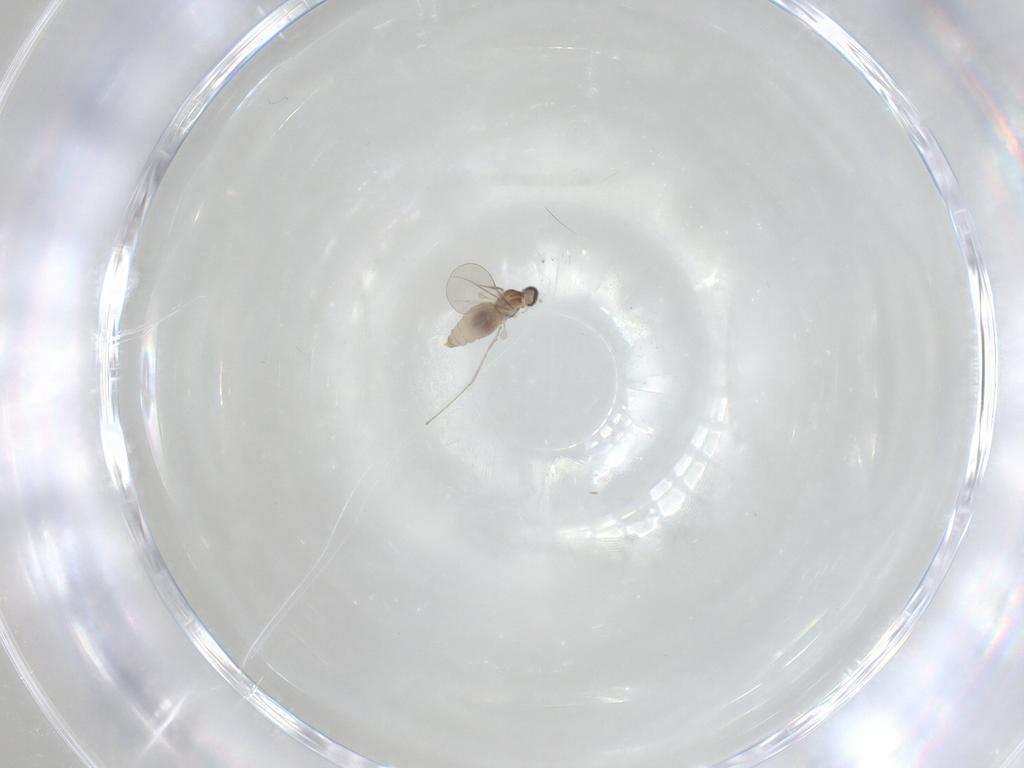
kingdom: Animalia
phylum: Arthropoda
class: Insecta
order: Diptera
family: Cecidomyiidae
